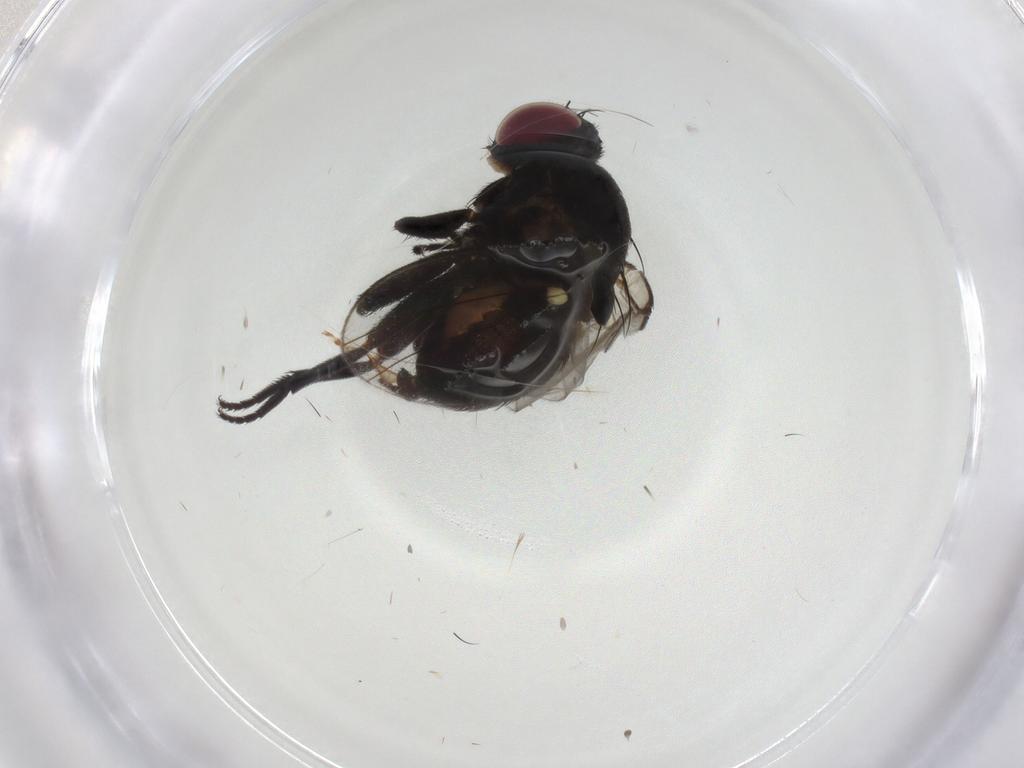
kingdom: Animalia
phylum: Arthropoda
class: Insecta
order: Diptera
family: Agromyzidae
